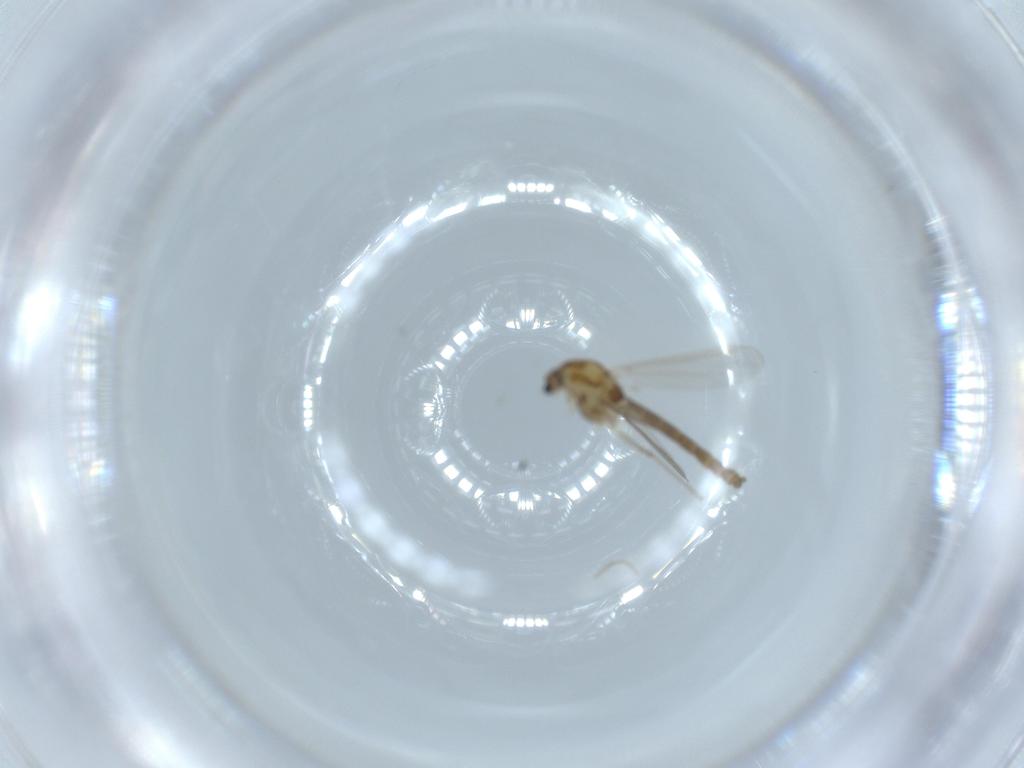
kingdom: Animalia
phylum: Arthropoda
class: Insecta
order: Diptera
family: Chironomidae
